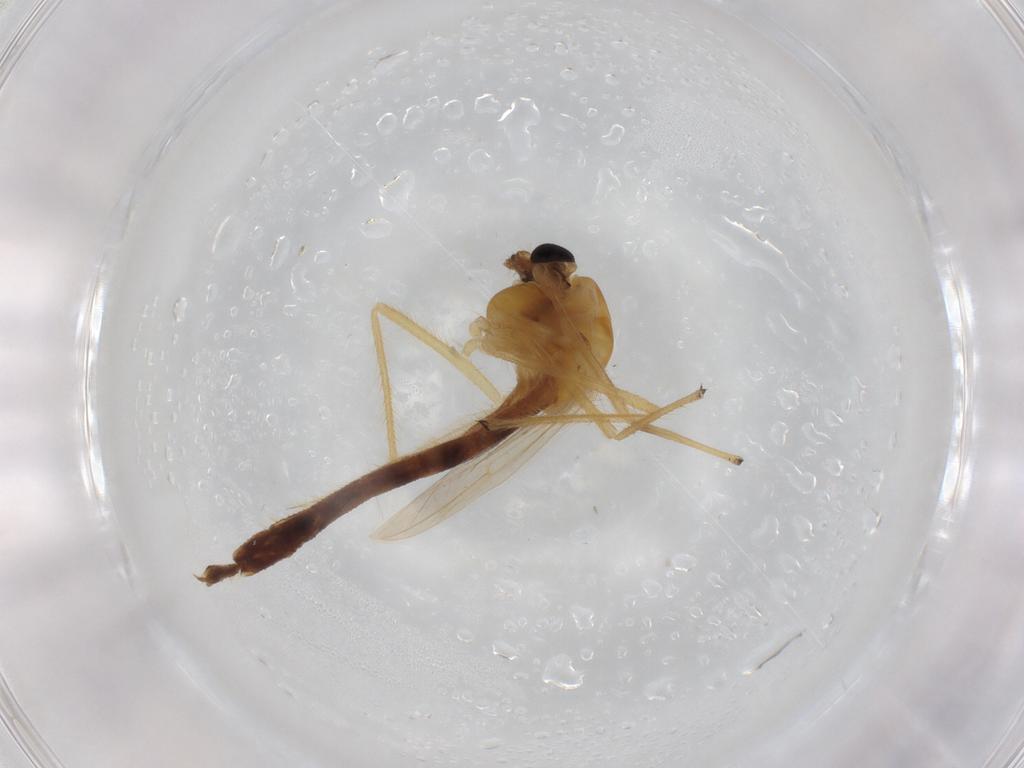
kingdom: Animalia
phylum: Arthropoda
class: Insecta
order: Diptera
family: Chironomidae
